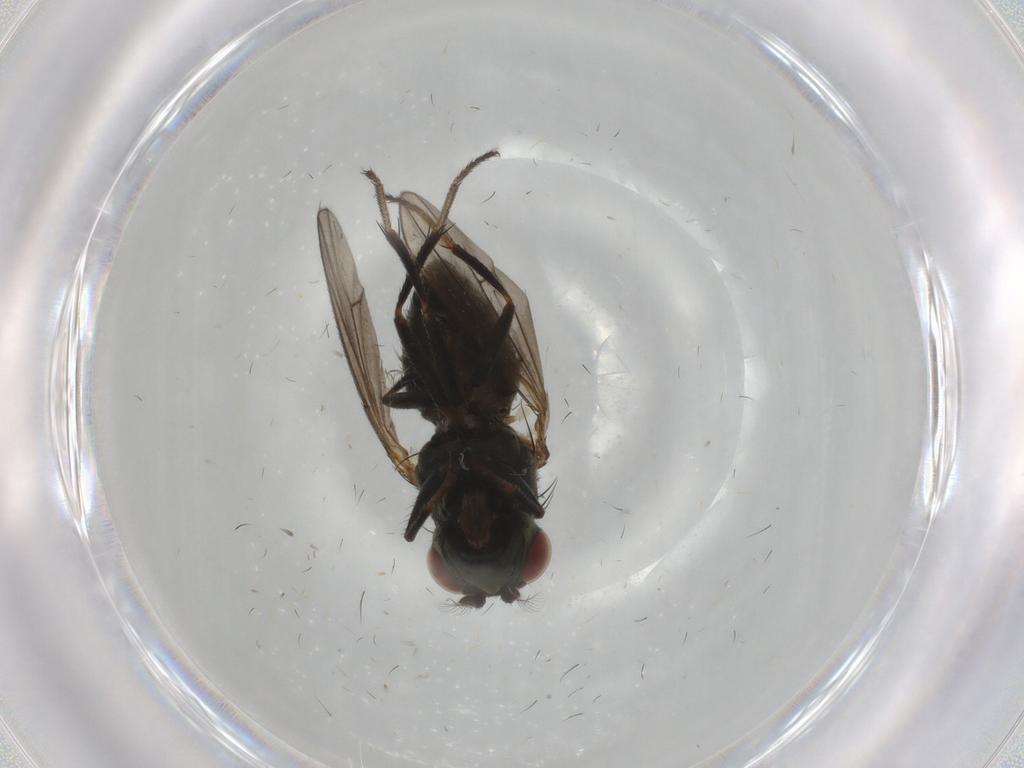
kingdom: Animalia
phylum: Arthropoda
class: Insecta
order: Diptera
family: Ephydridae
